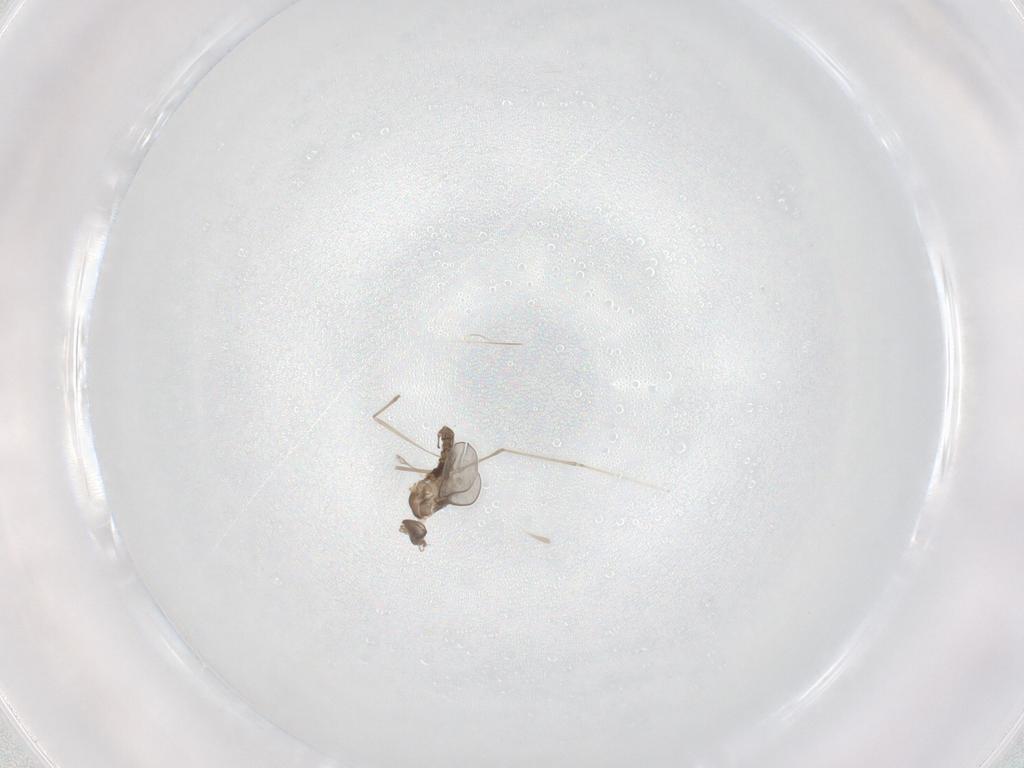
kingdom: Animalia
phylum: Arthropoda
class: Insecta
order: Diptera
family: Cecidomyiidae
